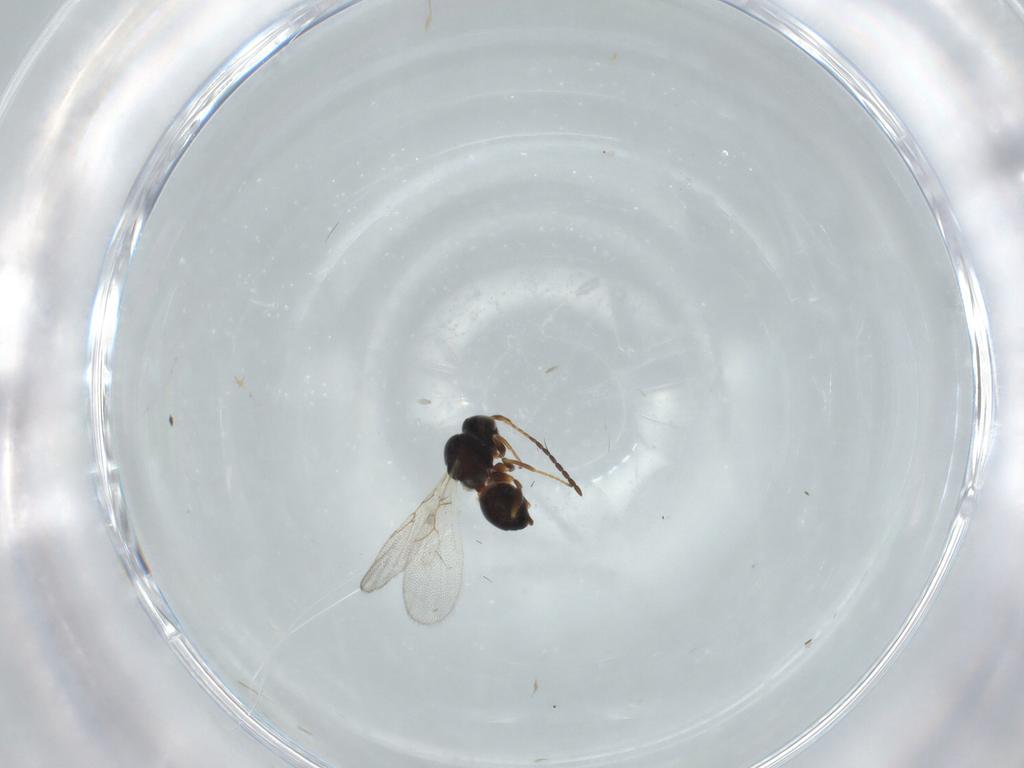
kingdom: Animalia
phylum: Arthropoda
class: Insecta
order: Hymenoptera
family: Figitidae
